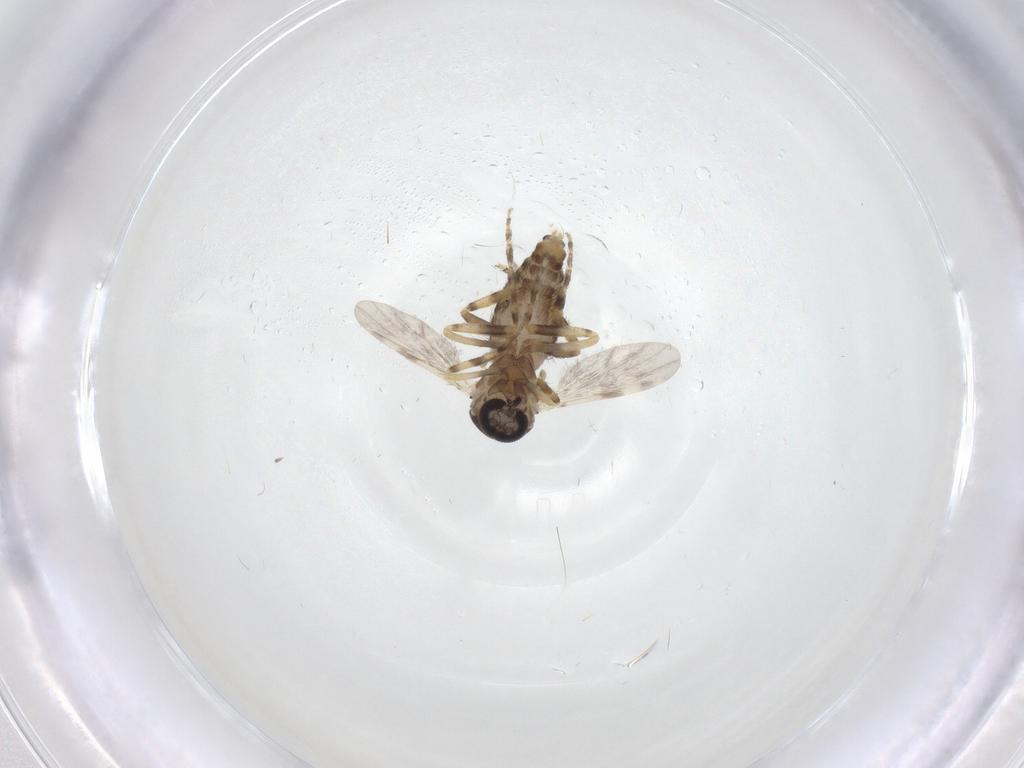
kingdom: Animalia
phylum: Arthropoda
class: Insecta
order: Diptera
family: Ceratopogonidae
